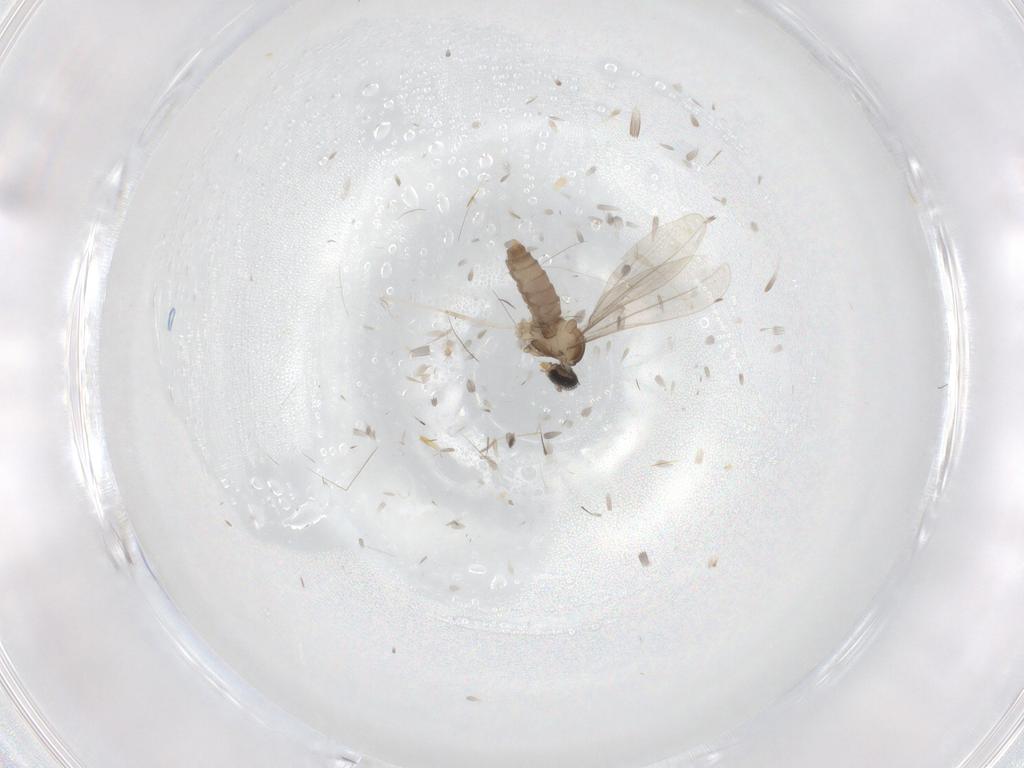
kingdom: Animalia
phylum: Arthropoda
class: Insecta
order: Diptera
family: Cecidomyiidae
